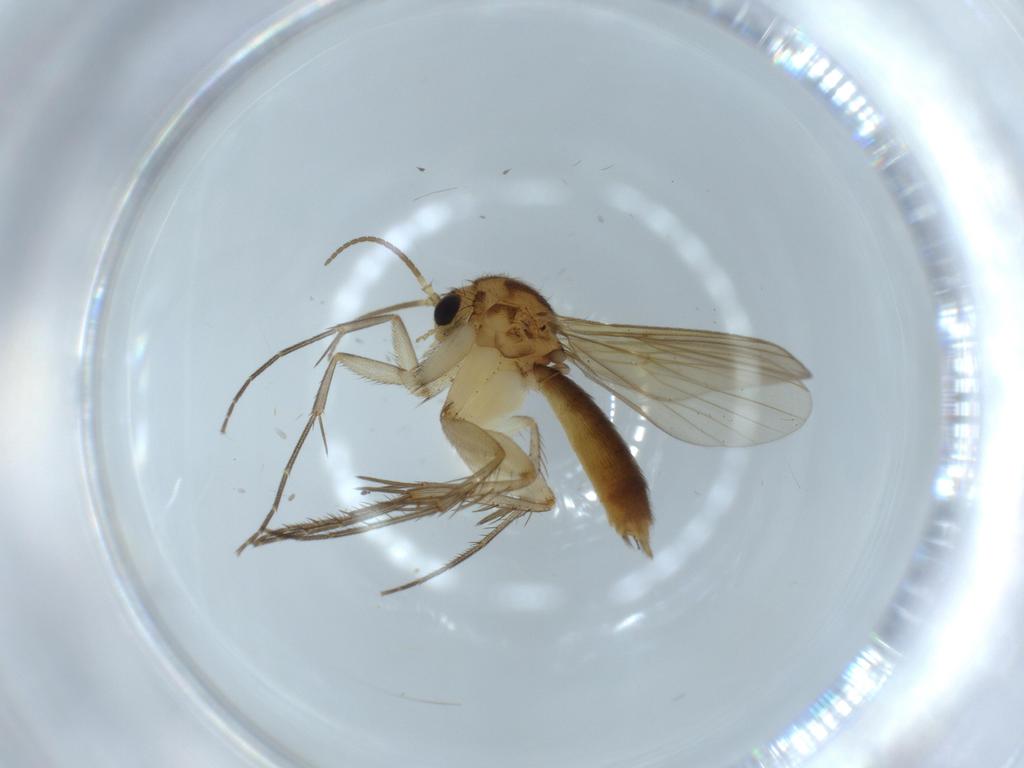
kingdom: Animalia
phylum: Arthropoda
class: Insecta
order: Diptera
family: Mycetophilidae
